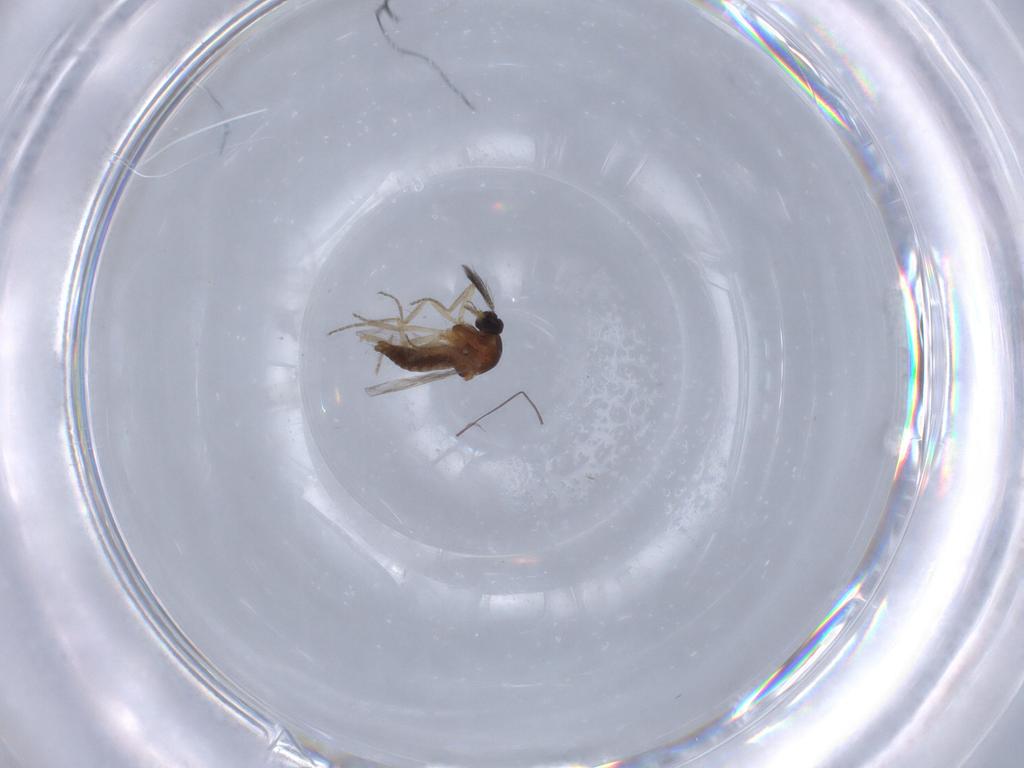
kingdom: Animalia
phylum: Arthropoda
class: Insecta
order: Diptera
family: Ceratopogonidae
